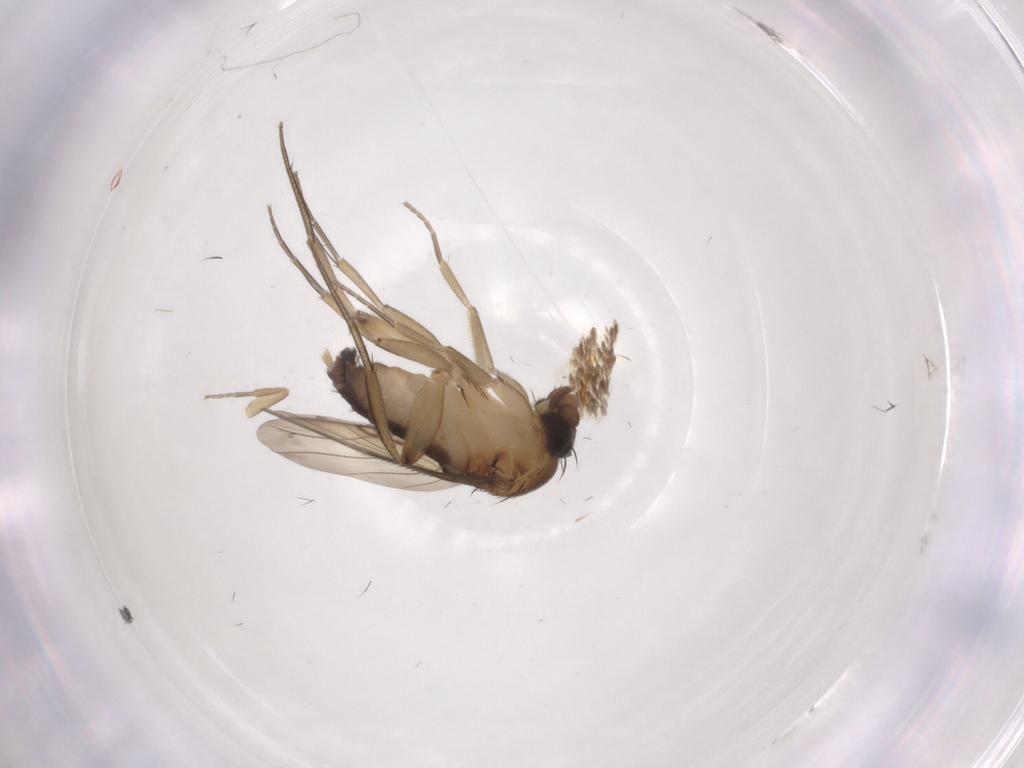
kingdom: Animalia
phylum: Arthropoda
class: Insecta
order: Diptera
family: Phoridae
